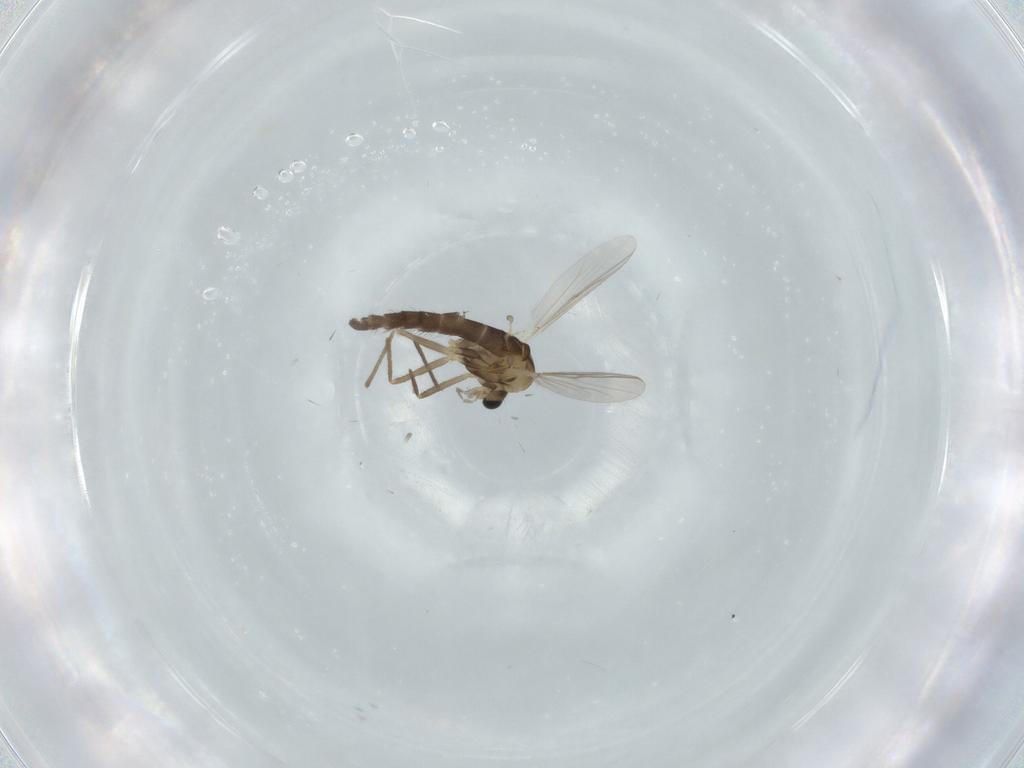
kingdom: Animalia
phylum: Arthropoda
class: Insecta
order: Diptera
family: Chironomidae
